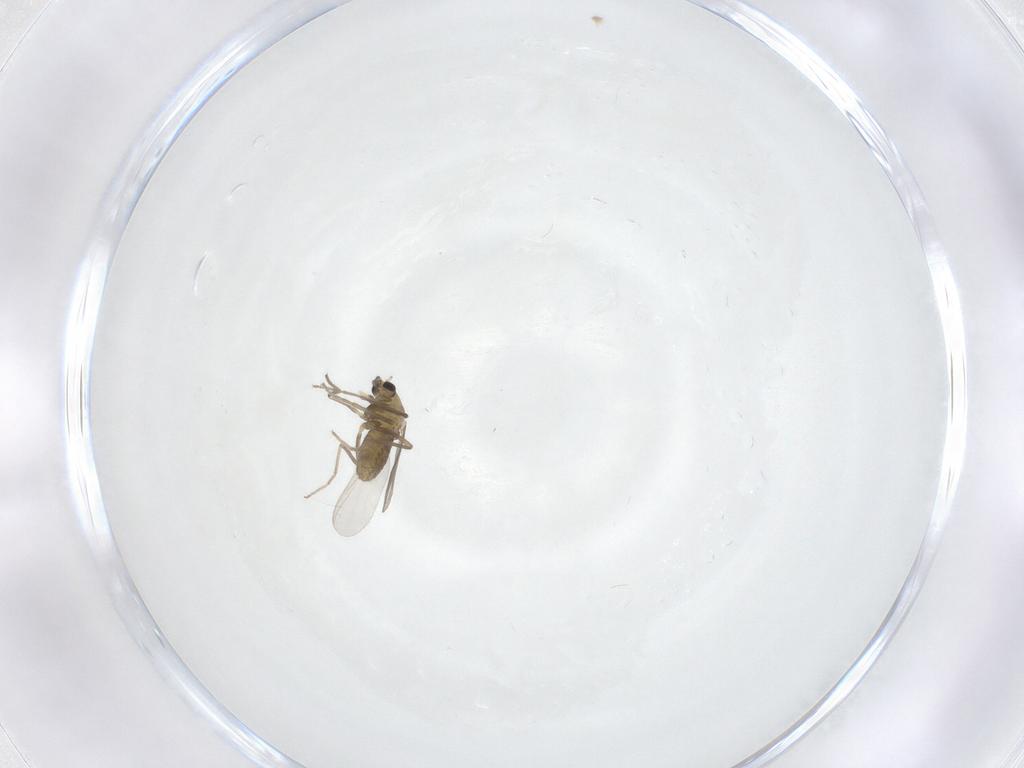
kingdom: Animalia
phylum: Arthropoda
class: Insecta
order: Diptera
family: Chironomidae
